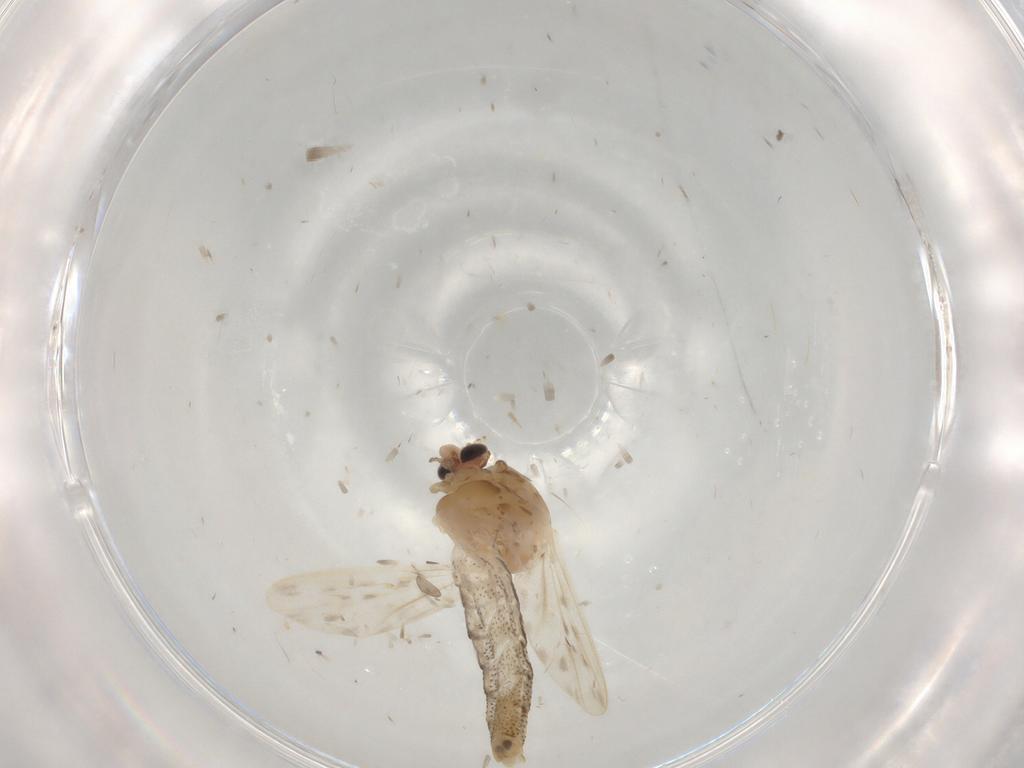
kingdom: Animalia
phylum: Arthropoda
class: Insecta
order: Diptera
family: Chaoboridae
